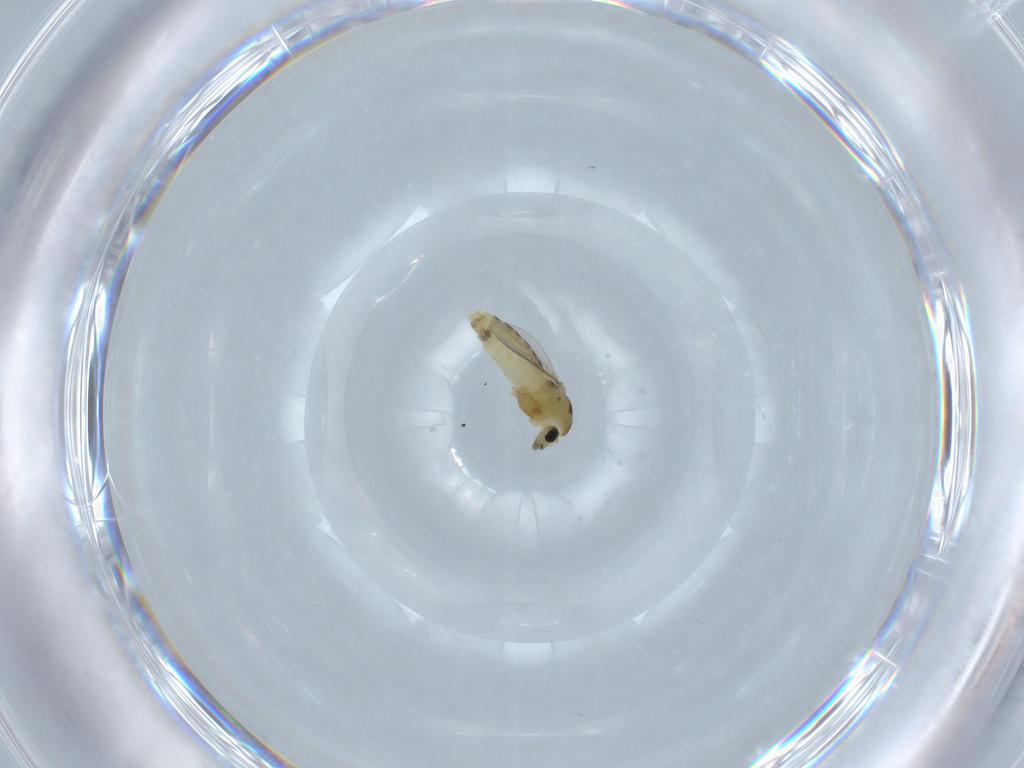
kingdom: Animalia
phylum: Arthropoda
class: Insecta
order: Diptera
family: Chironomidae
